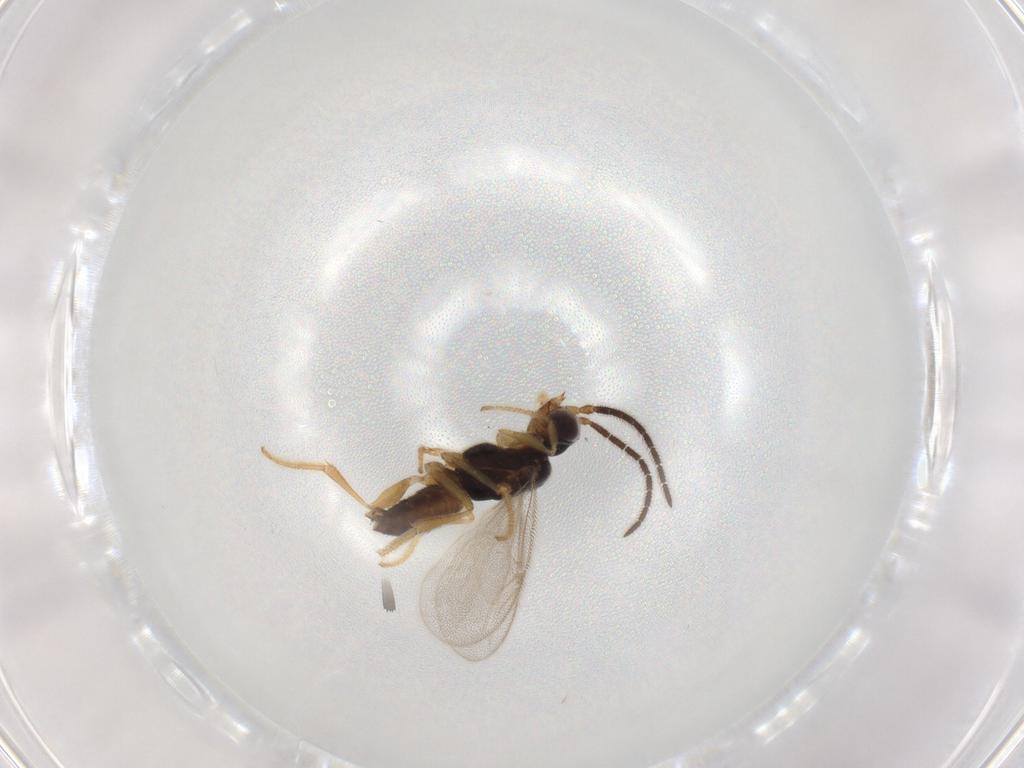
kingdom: Animalia
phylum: Arthropoda
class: Insecta
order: Hymenoptera
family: Dryinidae
